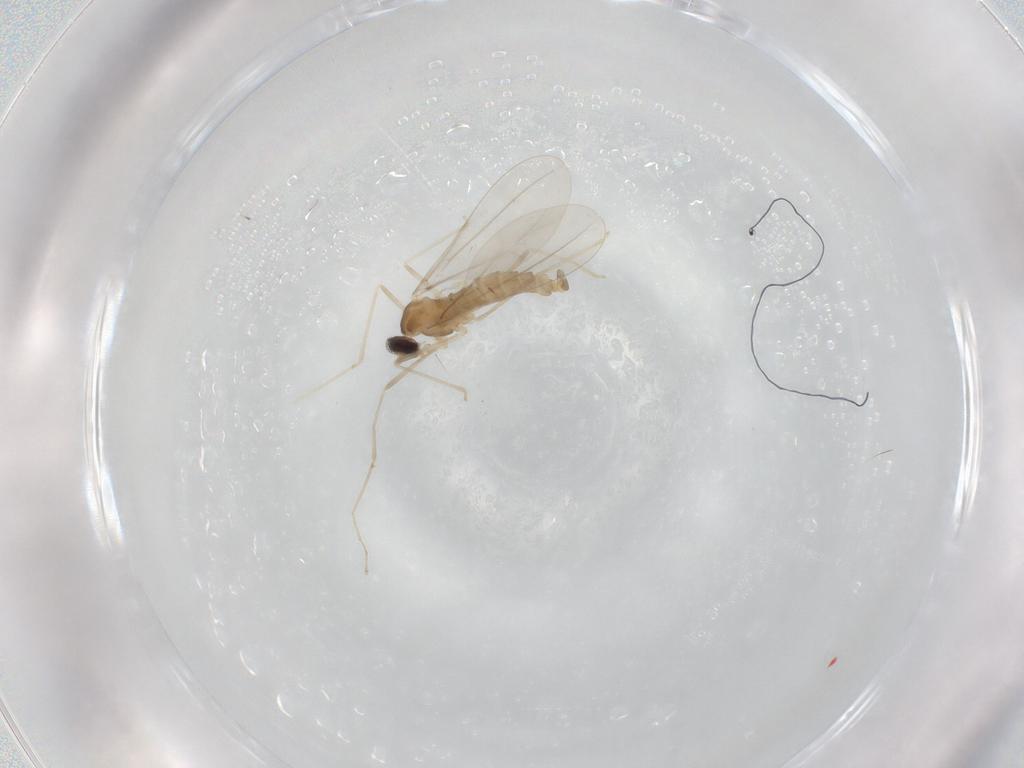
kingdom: Animalia
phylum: Arthropoda
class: Insecta
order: Diptera
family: Cecidomyiidae
